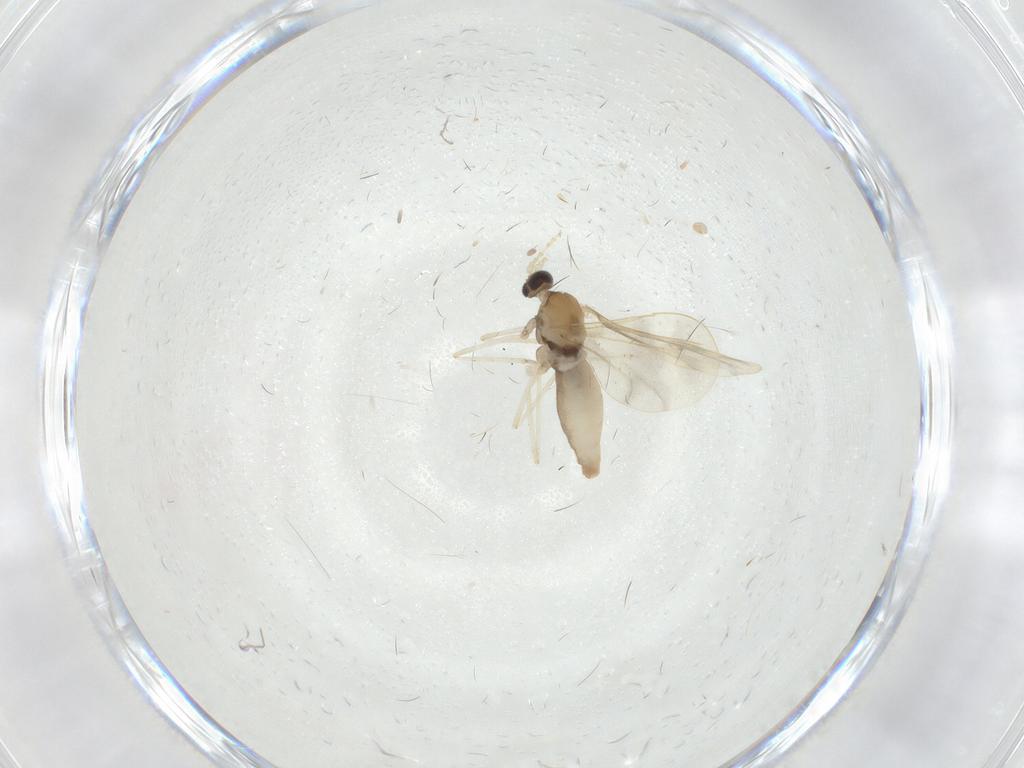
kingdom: Animalia
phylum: Arthropoda
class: Insecta
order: Diptera
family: Cecidomyiidae
